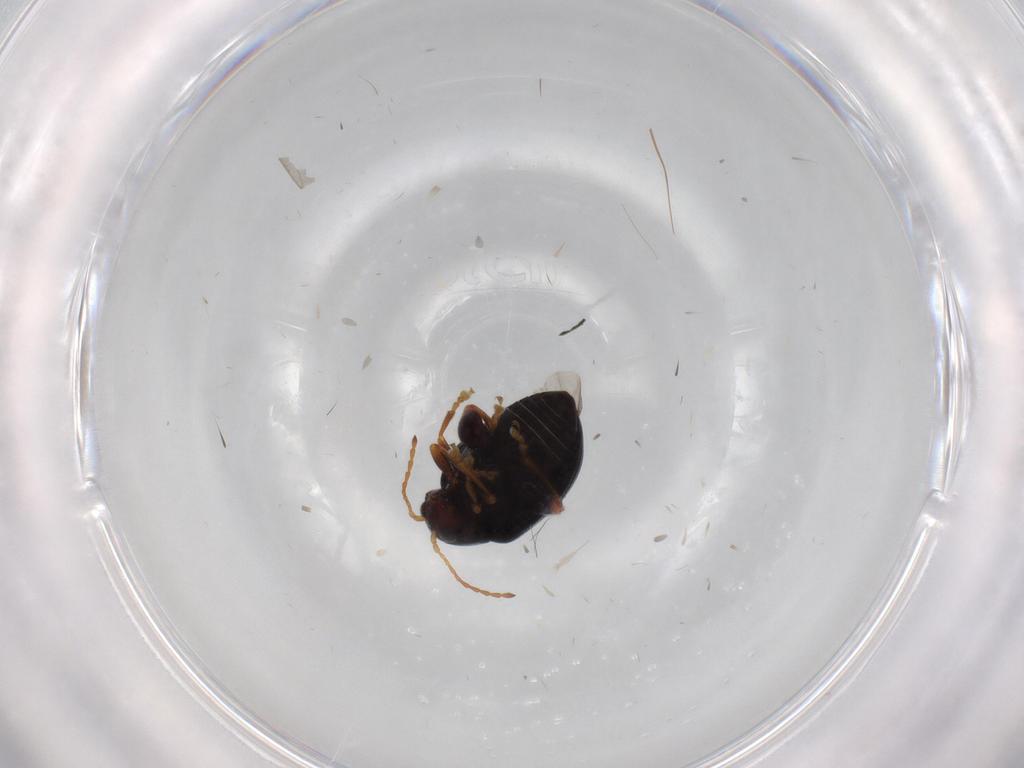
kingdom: Animalia
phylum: Arthropoda
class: Insecta
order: Coleoptera
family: Chrysomelidae
